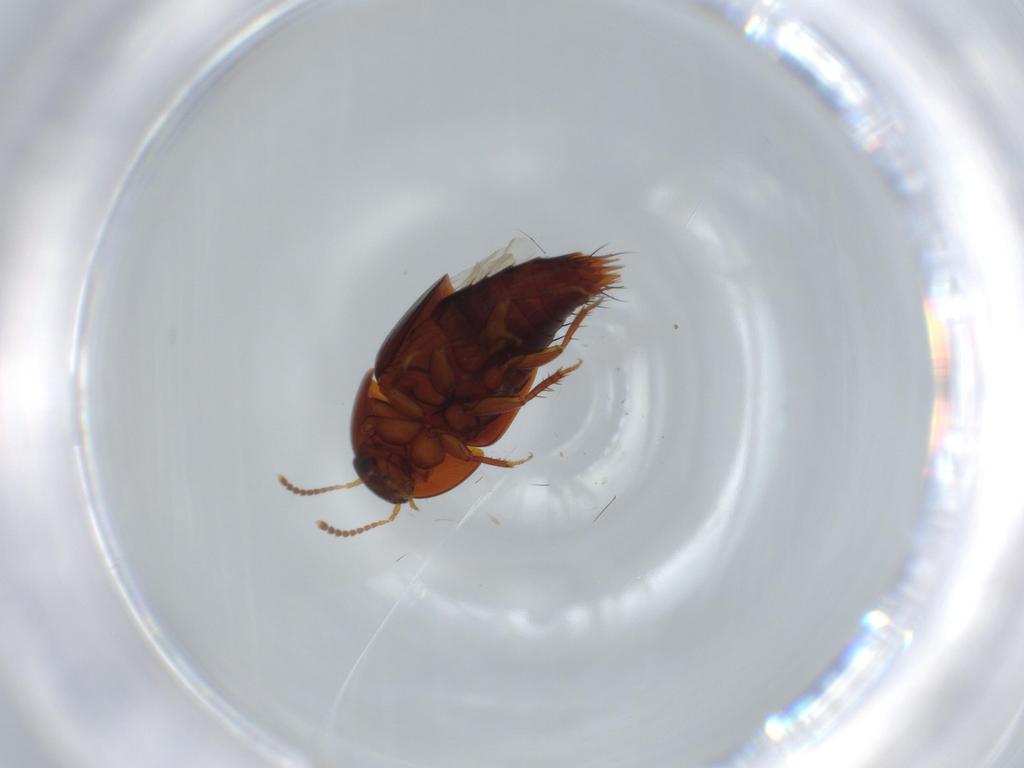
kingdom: Animalia
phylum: Arthropoda
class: Insecta
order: Coleoptera
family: Staphylinidae
